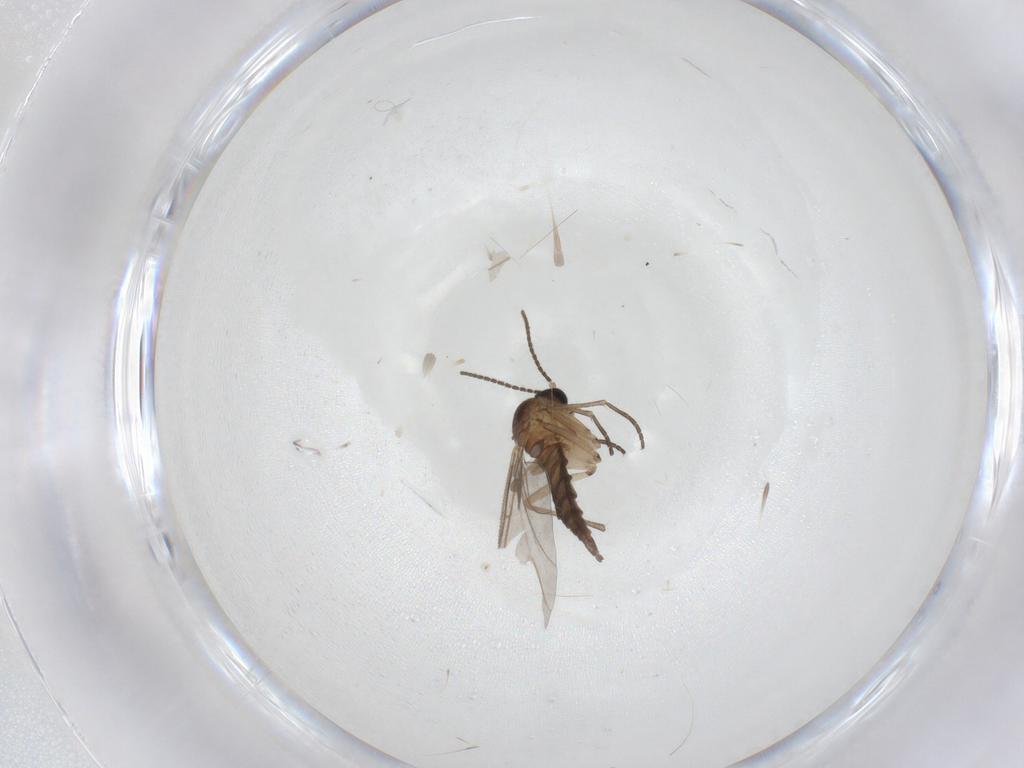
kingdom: Animalia
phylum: Arthropoda
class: Insecta
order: Diptera
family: Sciaridae
